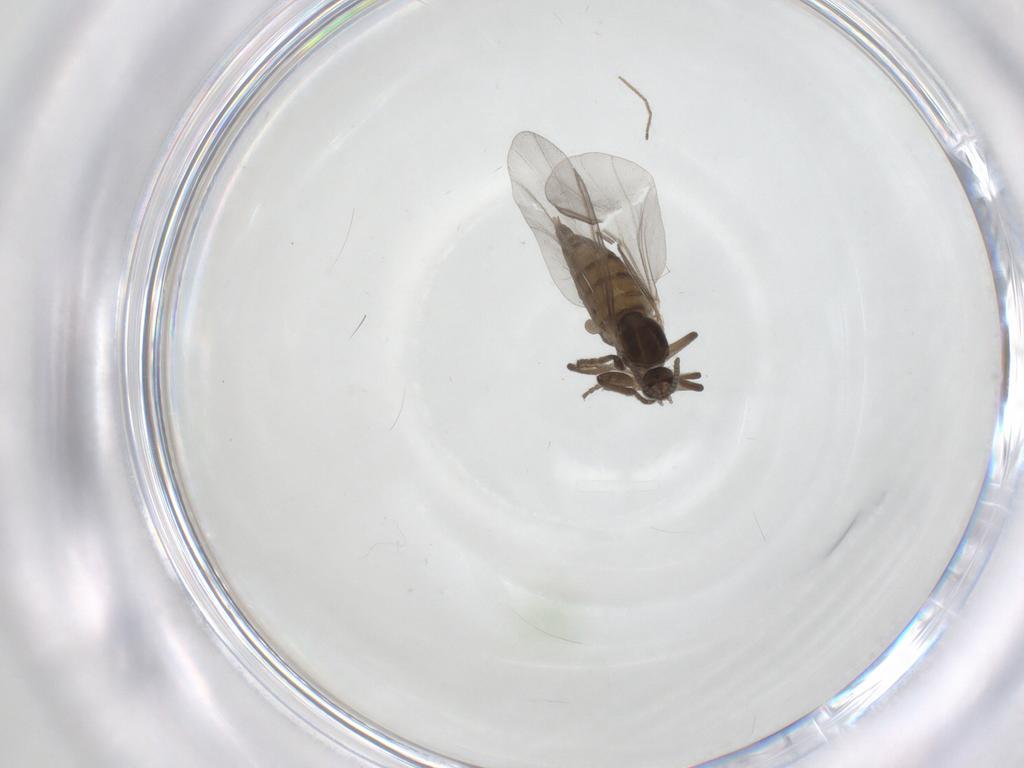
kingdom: Animalia
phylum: Arthropoda
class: Insecta
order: Diptera
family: Cecidomyiidae
